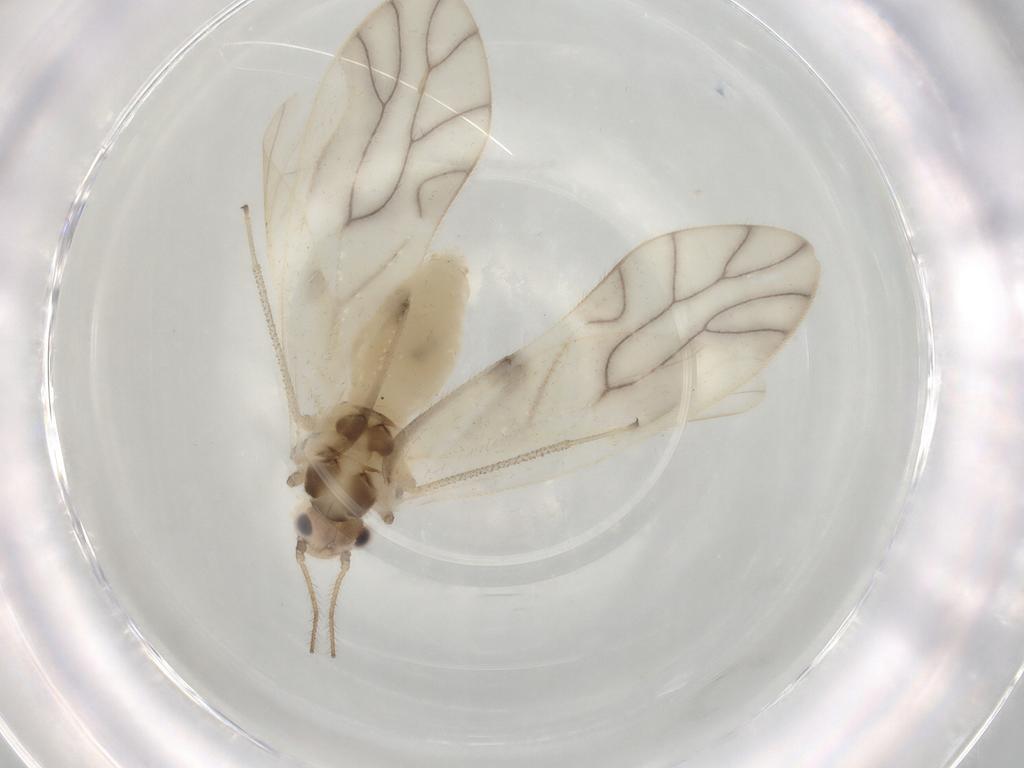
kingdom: Animalia
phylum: Arthropoda
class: Insecta
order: Psocodea
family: Caeciliusidae
